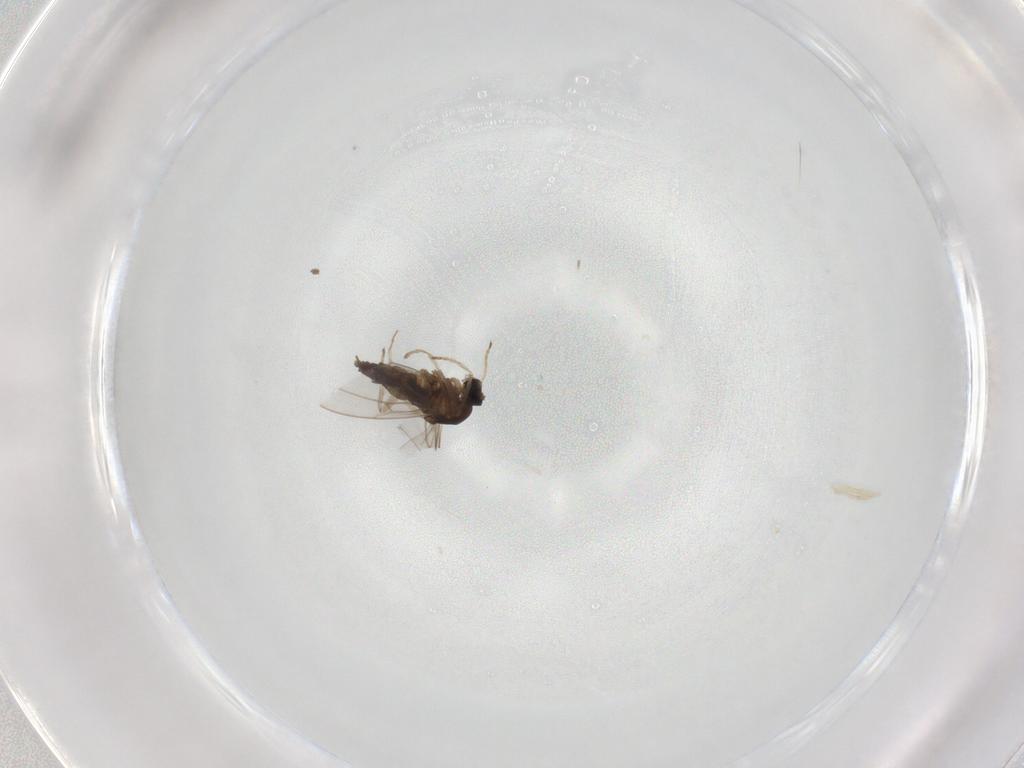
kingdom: Animalia
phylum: Arthropoda
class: Insecta
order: Diptera
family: Cecidomyiidae
